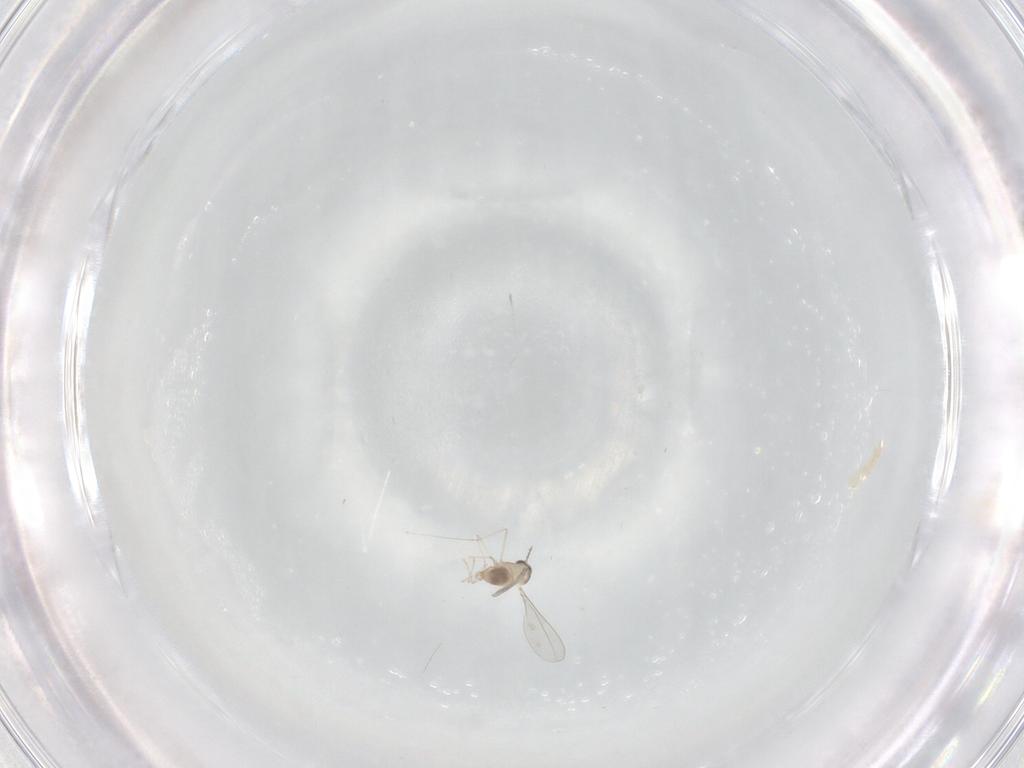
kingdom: Animalia
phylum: Arthropoda
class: Insecta
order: Diptera
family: Cecidomyiidae
